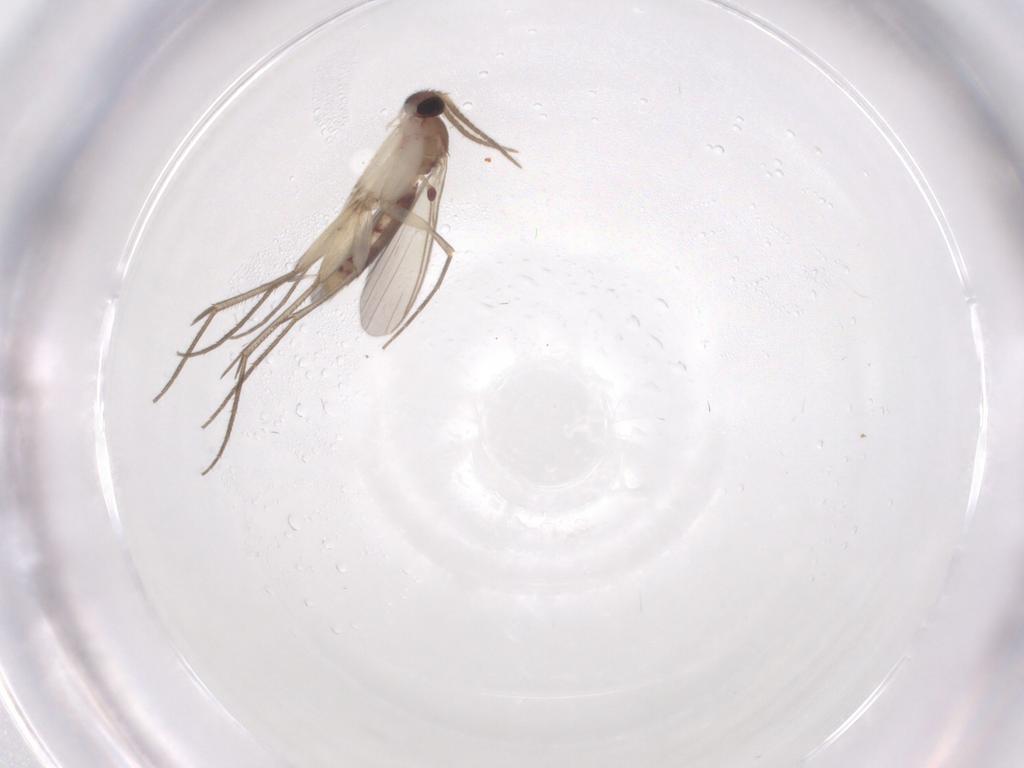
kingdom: Animalia
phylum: Arthropoda
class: Insecta
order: Diptera
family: Mycetophilidae
